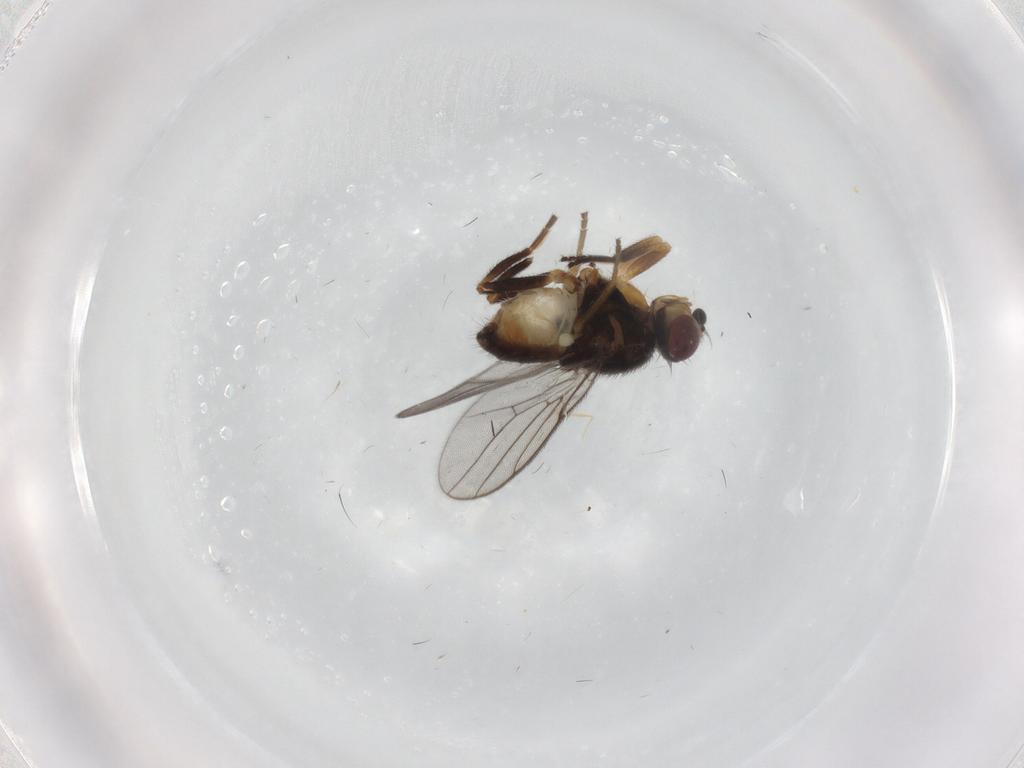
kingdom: Animalia
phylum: Arthropoda
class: Insecta
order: Diptera
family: Chloropidae
